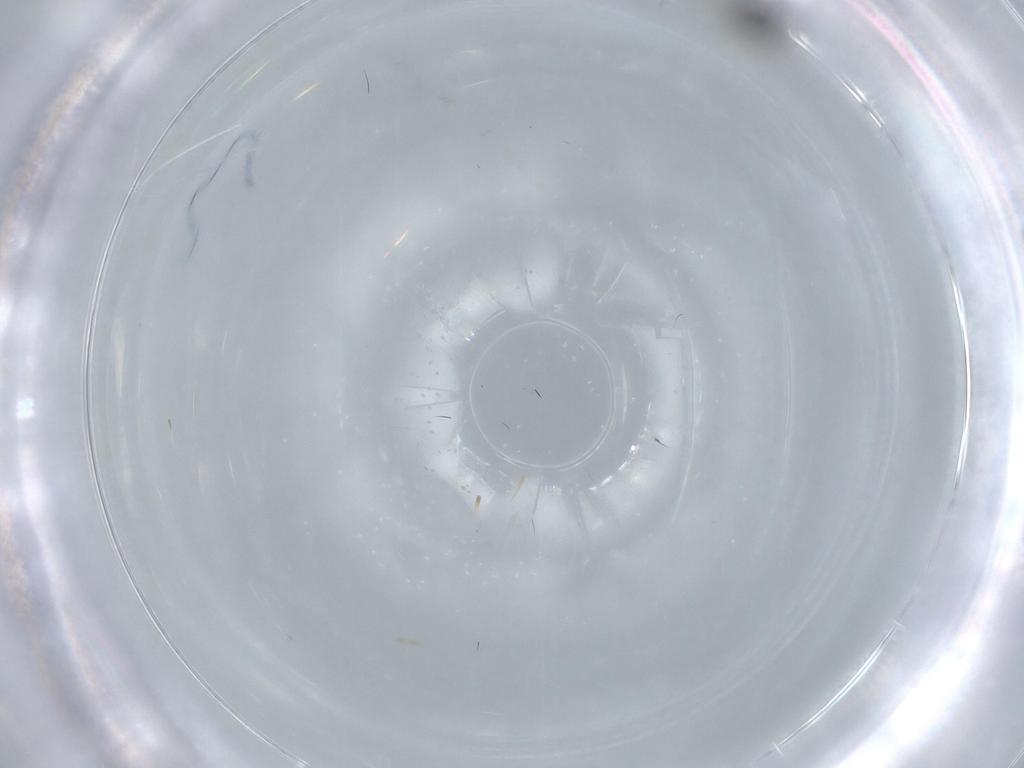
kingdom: Animalia
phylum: Arthropoda
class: Insecta
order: Diptera
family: Ceratopogonidae
